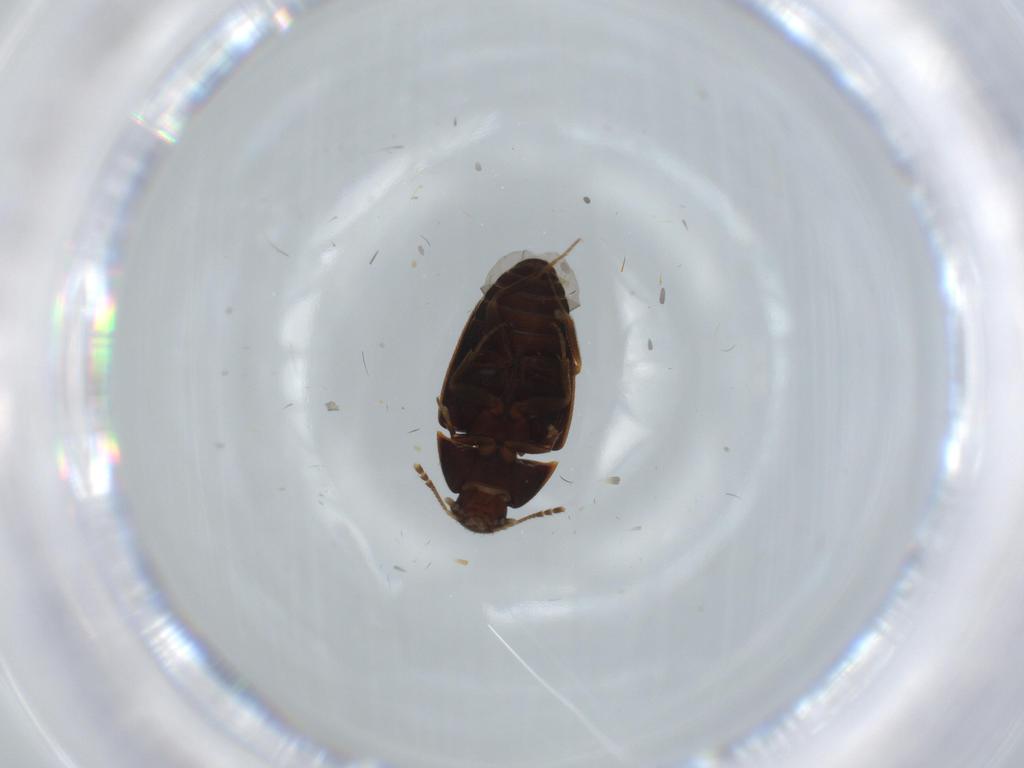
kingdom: Animalia
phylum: Arthropoda
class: Insecta
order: Coleoptera
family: Mycetophagidae
